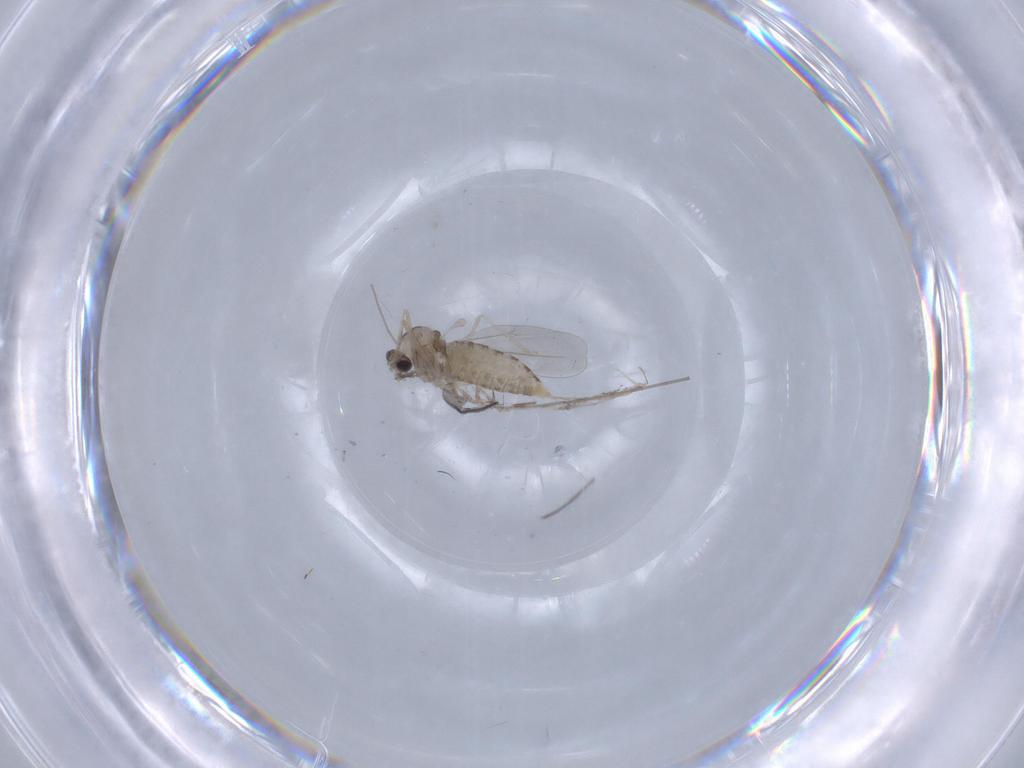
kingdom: Animalia
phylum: Arthropoda
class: Insecta
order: Diptera
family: Cecidomyiidae
